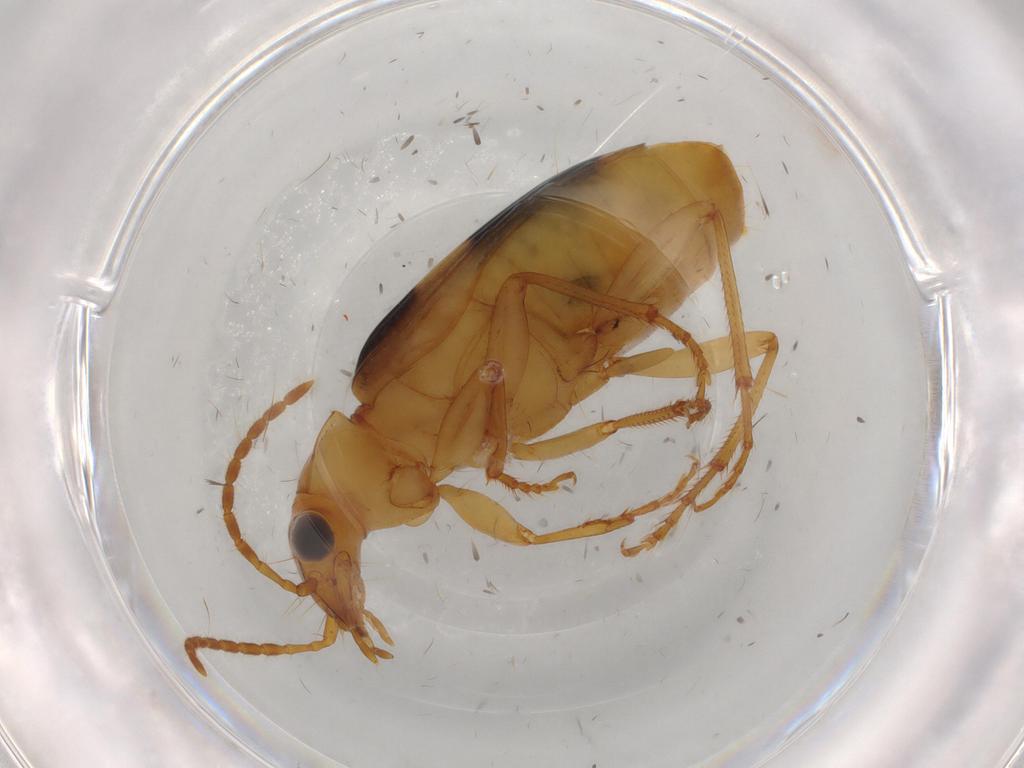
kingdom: Animalia
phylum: Arthropoda
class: Insecta
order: Coleoptera
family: Carabidae
